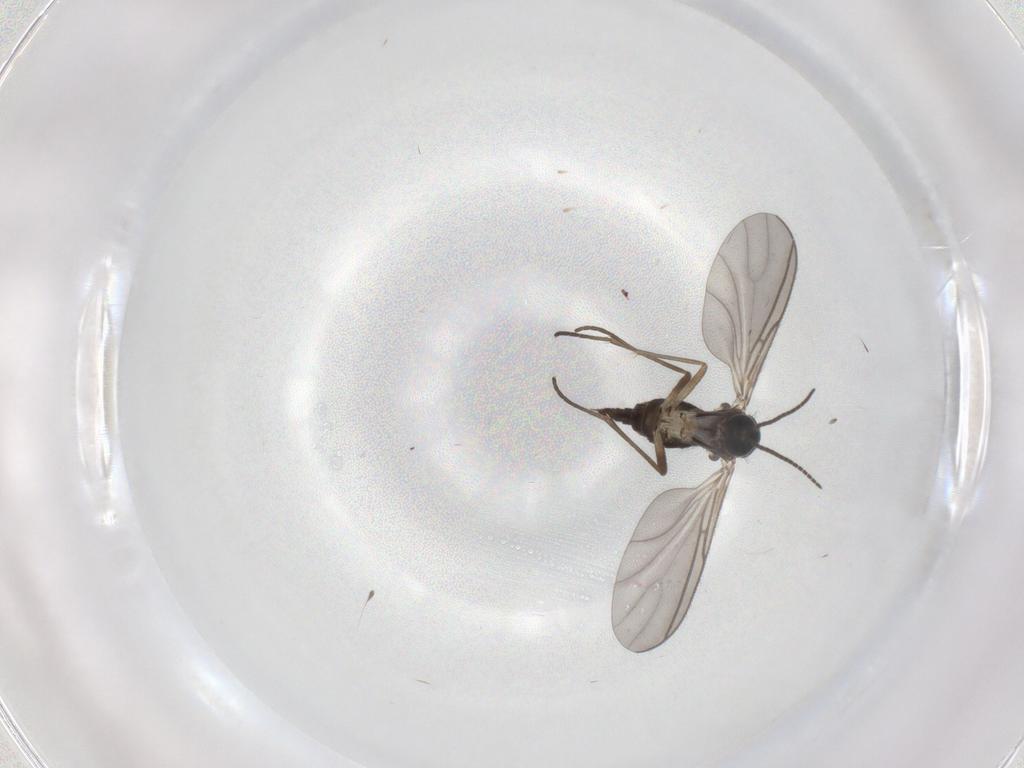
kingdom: Animalia
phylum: Arthropoda
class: Insecta
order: Diptera
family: Sciaridae
